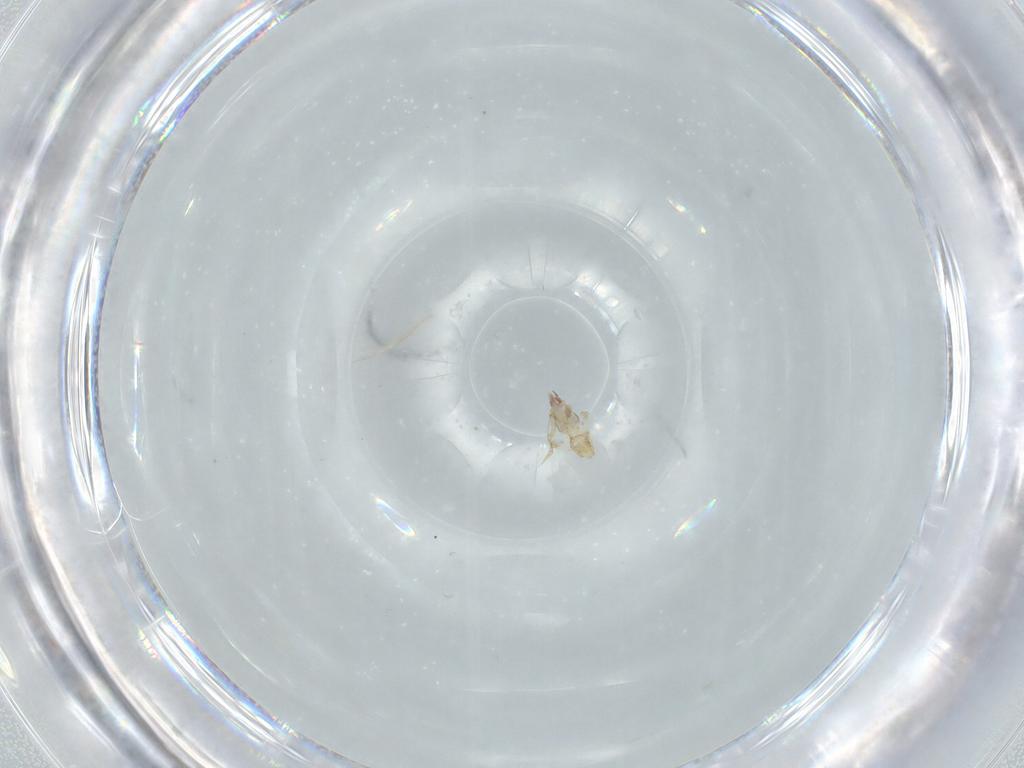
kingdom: Animalia
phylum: Arthropoda
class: Insecta
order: Hemiptera
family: Delphacidae
